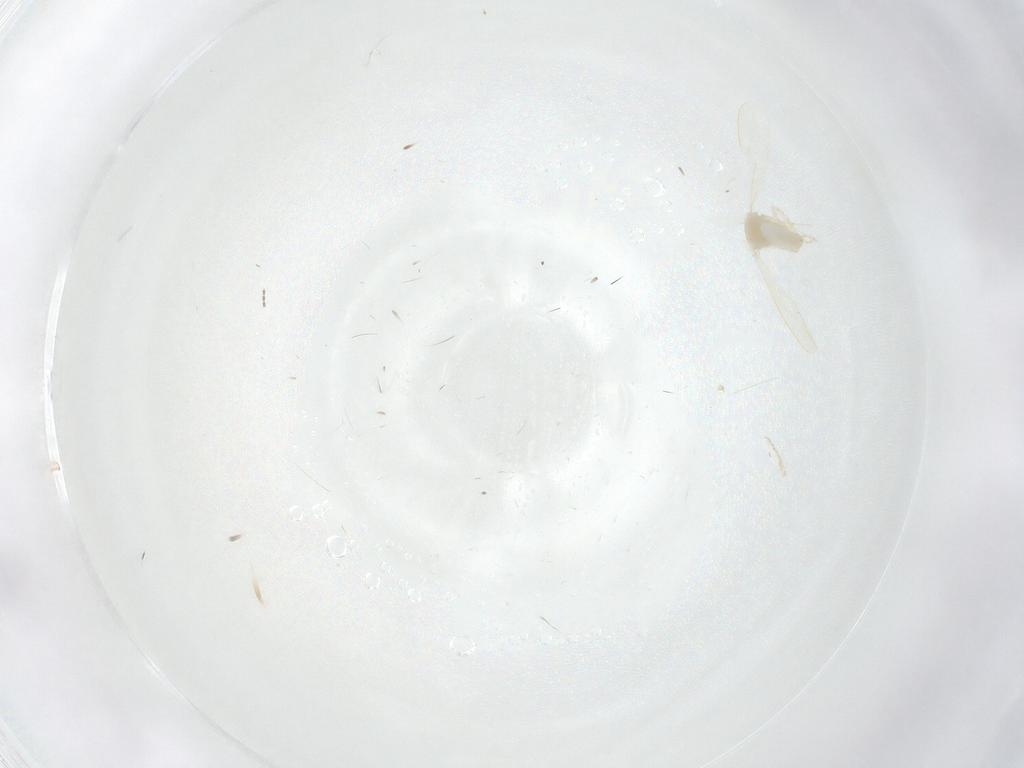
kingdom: Animalia
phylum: Arthropoda
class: Insecta
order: Diptera
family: Cecidomyiidae
